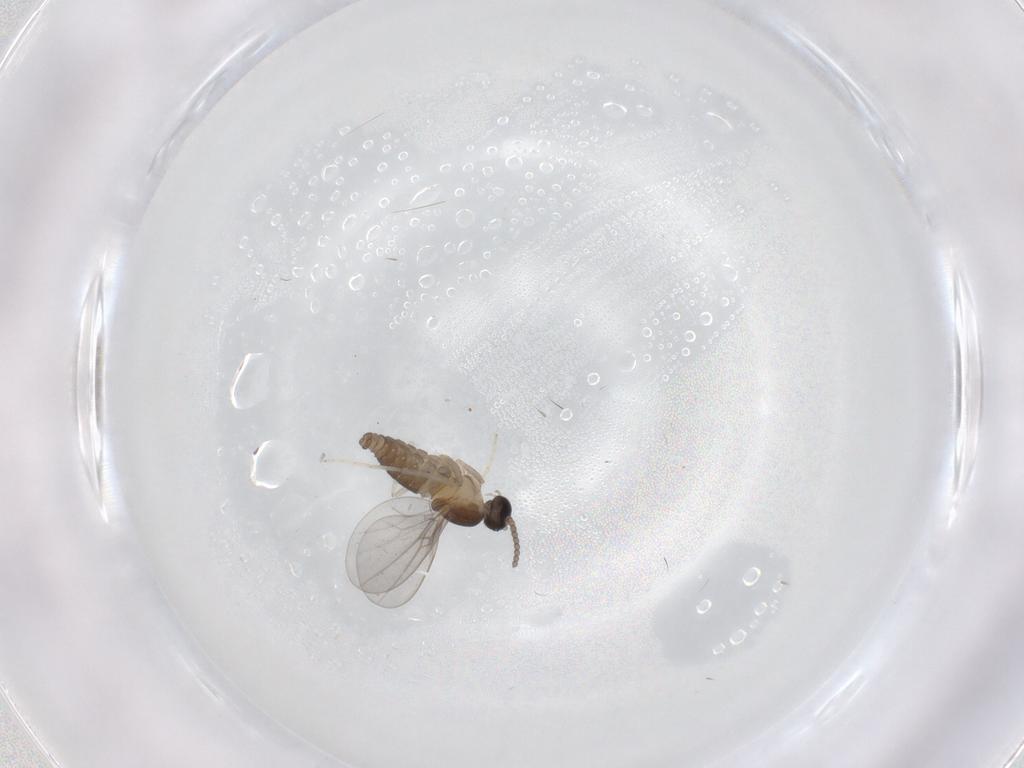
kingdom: Animalia
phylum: Arthropoda
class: Insecta
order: Diptera
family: Cecidomyiidae
